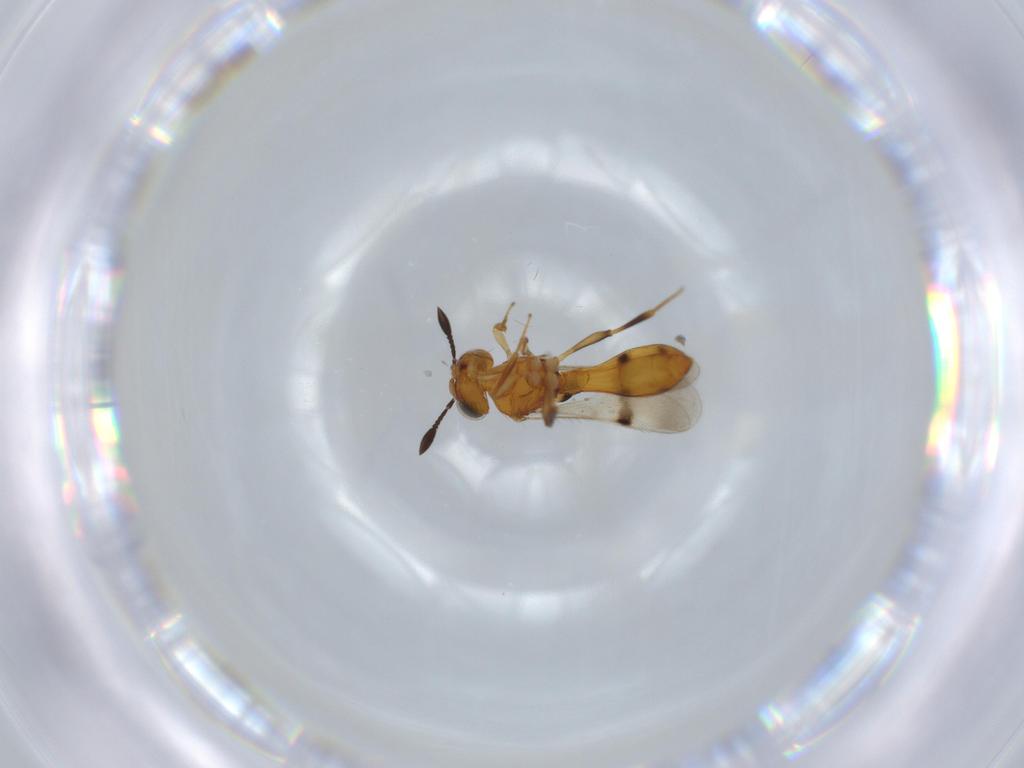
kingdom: Animalia
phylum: Arthropoda
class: Insecta
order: Hymenoptera
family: Scelionidae
